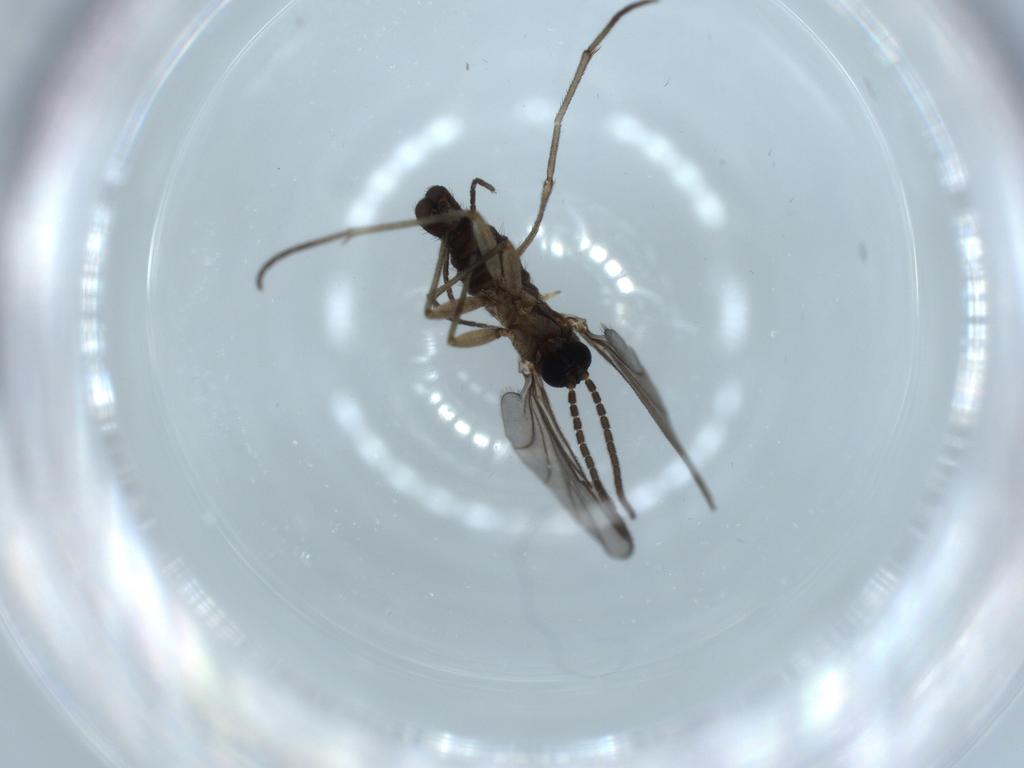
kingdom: Animalia
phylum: Arthropoda
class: Insecta
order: Diptera
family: Sciaridae
